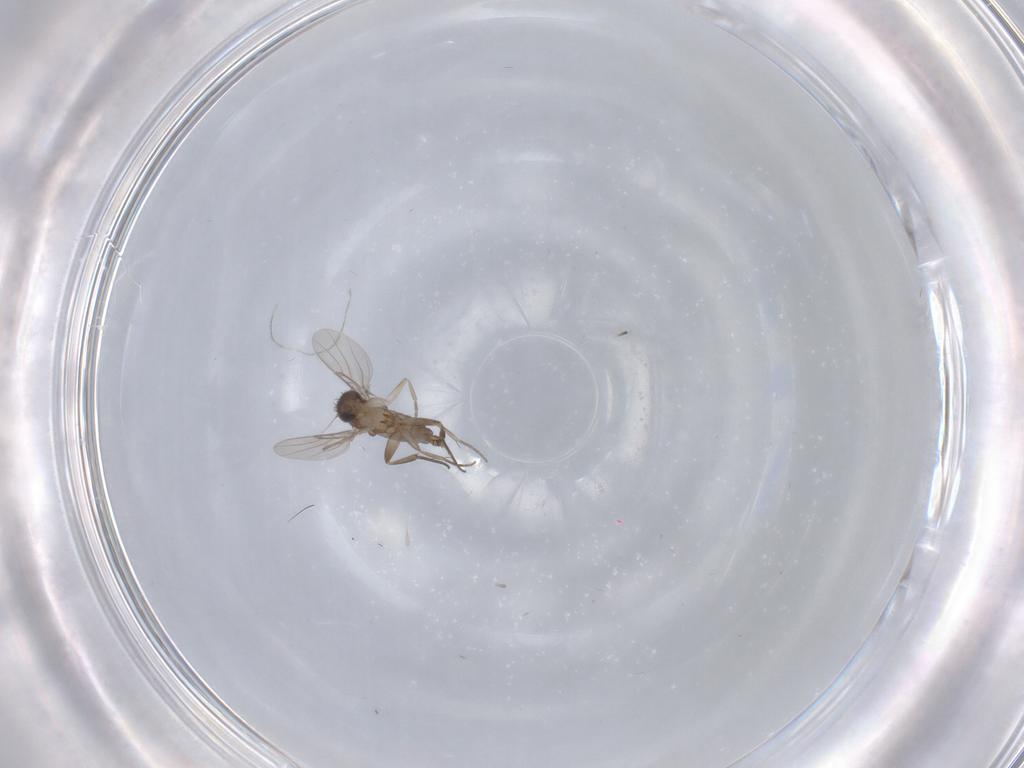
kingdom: Animalia
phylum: Arthropoda
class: Insecta
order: Diptera
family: Phoridae
